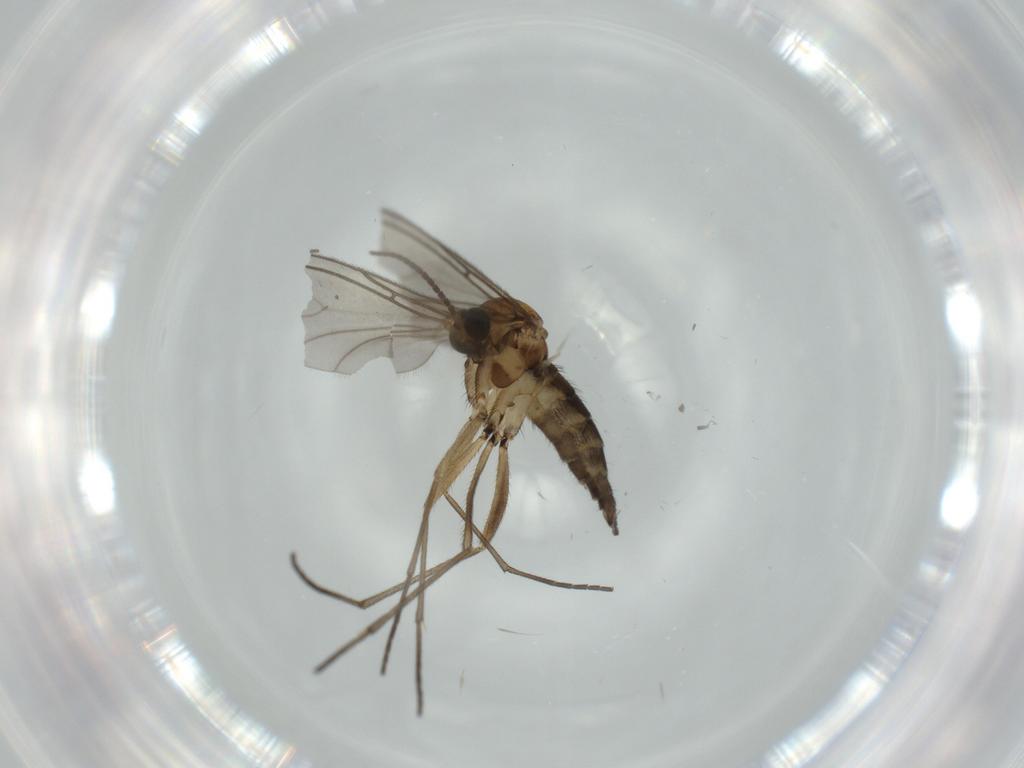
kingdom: Animalia
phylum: Arthropoda
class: Insecta
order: Diptera
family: Sciaridae
